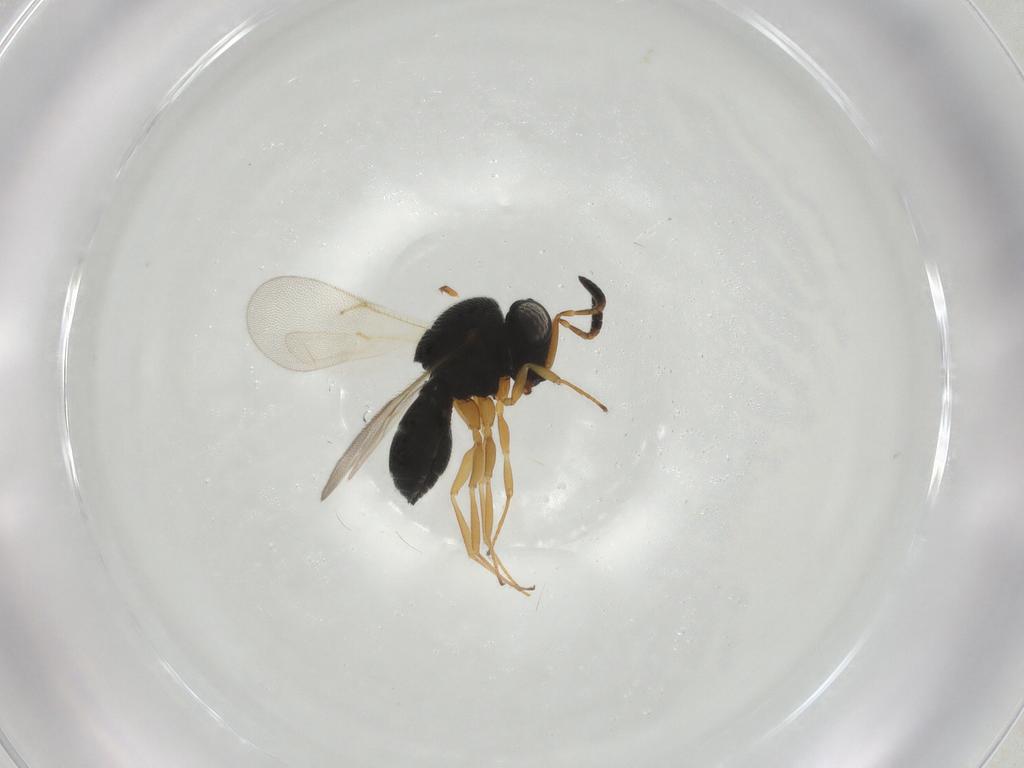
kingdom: Animalia
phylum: Arthropoda
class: Insecta
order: Hymenoptera
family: Scelionidae
